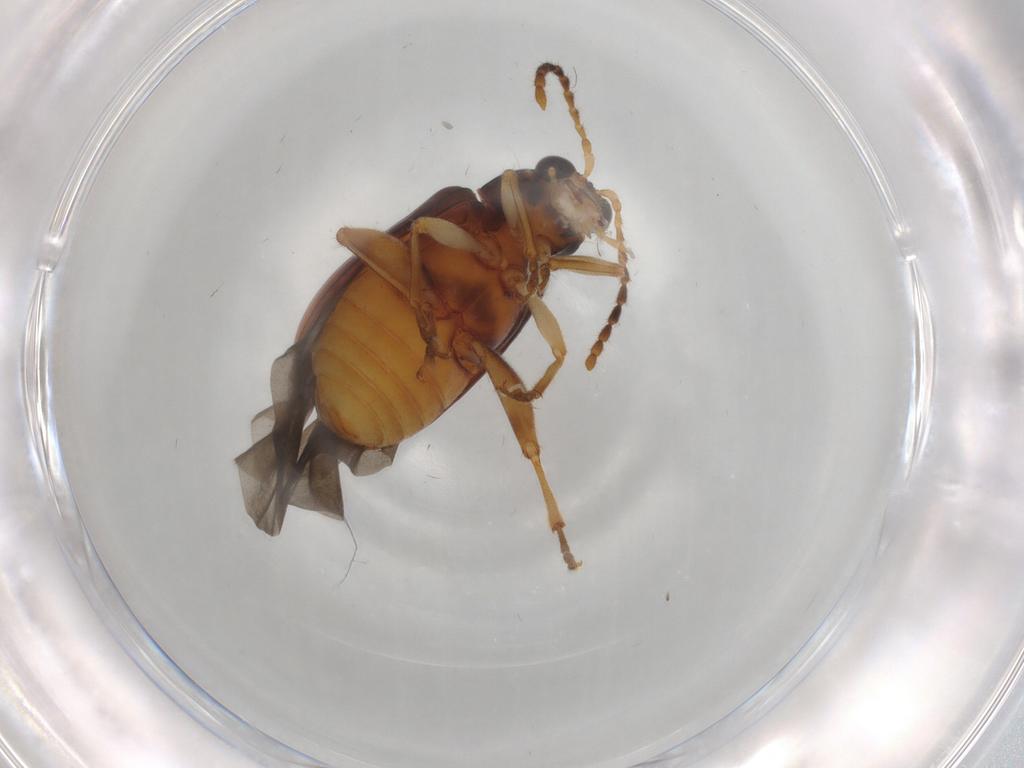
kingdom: Animalia
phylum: Arthropoda
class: Insecta
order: Coleoptera
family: Chrysomelidae
